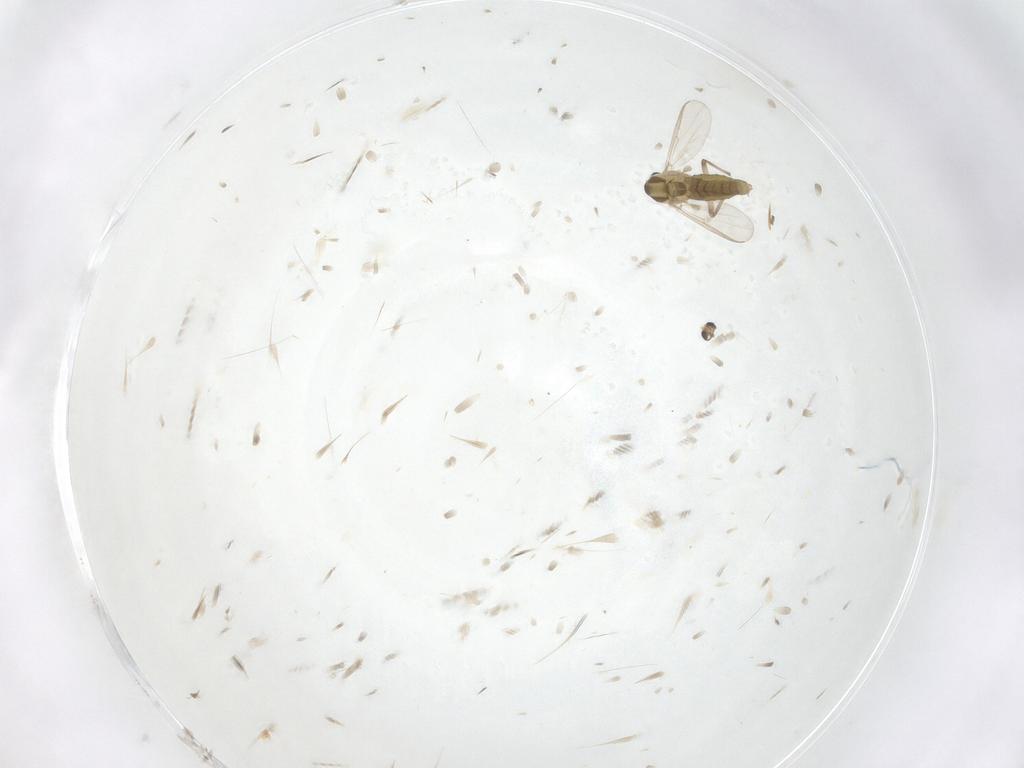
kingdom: Animalia
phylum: Arthropoda
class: Insecta
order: Diptera
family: Chironomidae
